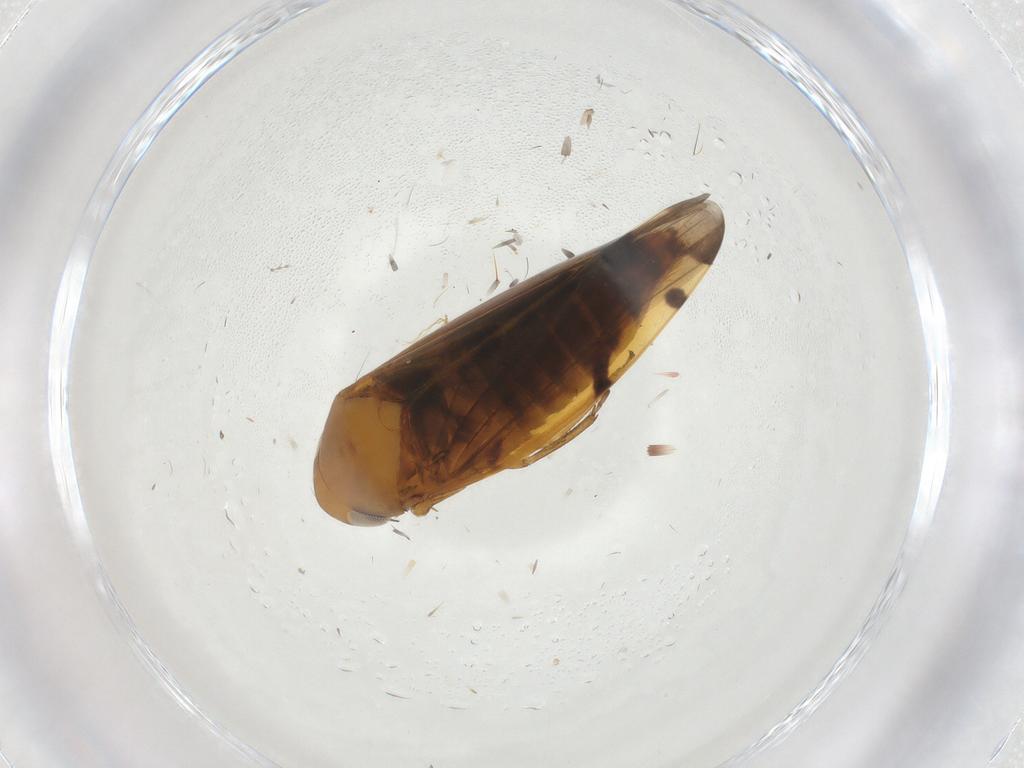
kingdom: Animalia
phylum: Arthropoda
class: Insecta
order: Hemiptera
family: Cicadellidae
